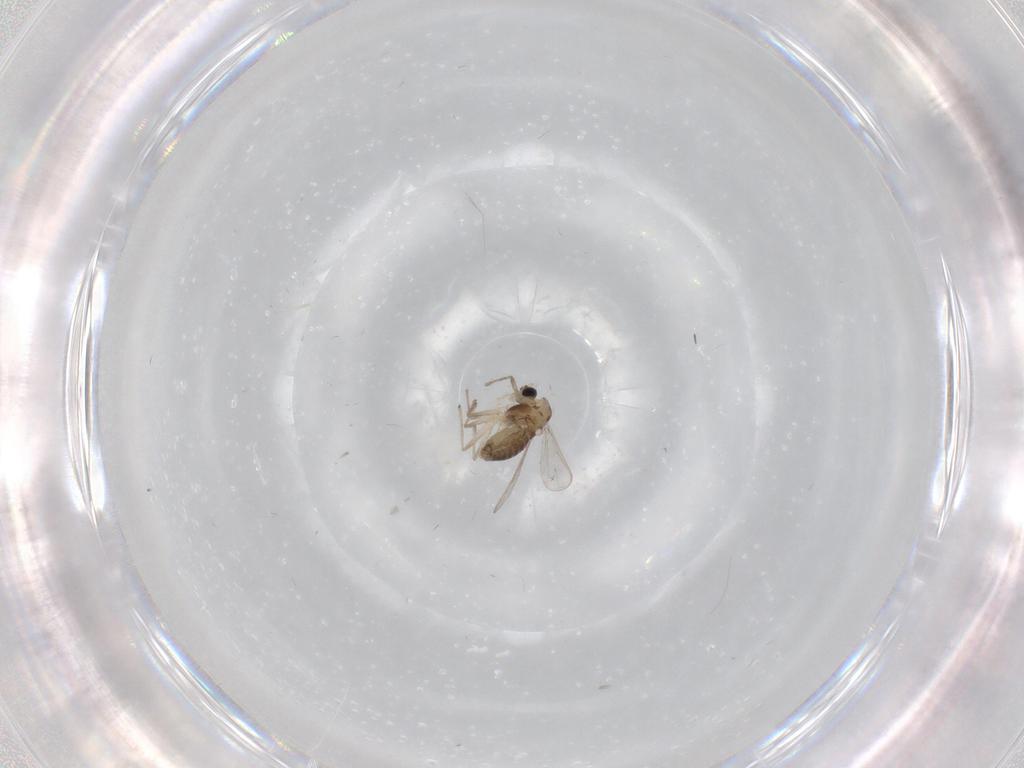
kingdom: Animalia
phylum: Arthropoda
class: Insecta
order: Diptera
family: Chironomidae
